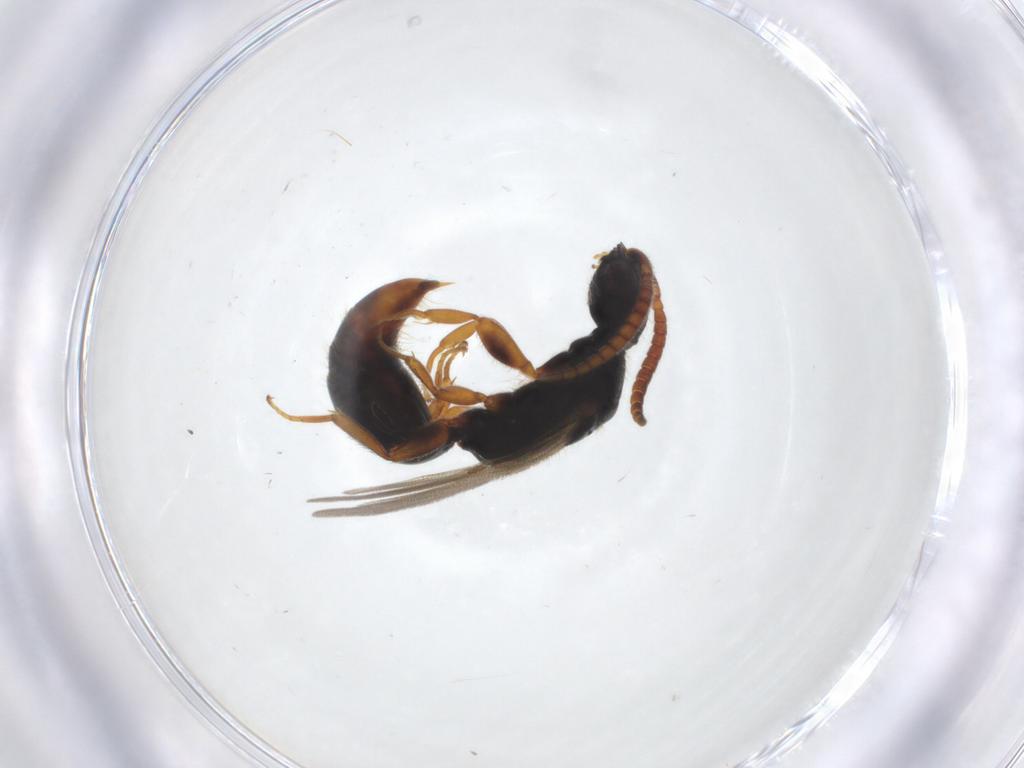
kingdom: Animalia
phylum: Arthropoda
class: Insecta
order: Hymenoptera
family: Bethylidae
